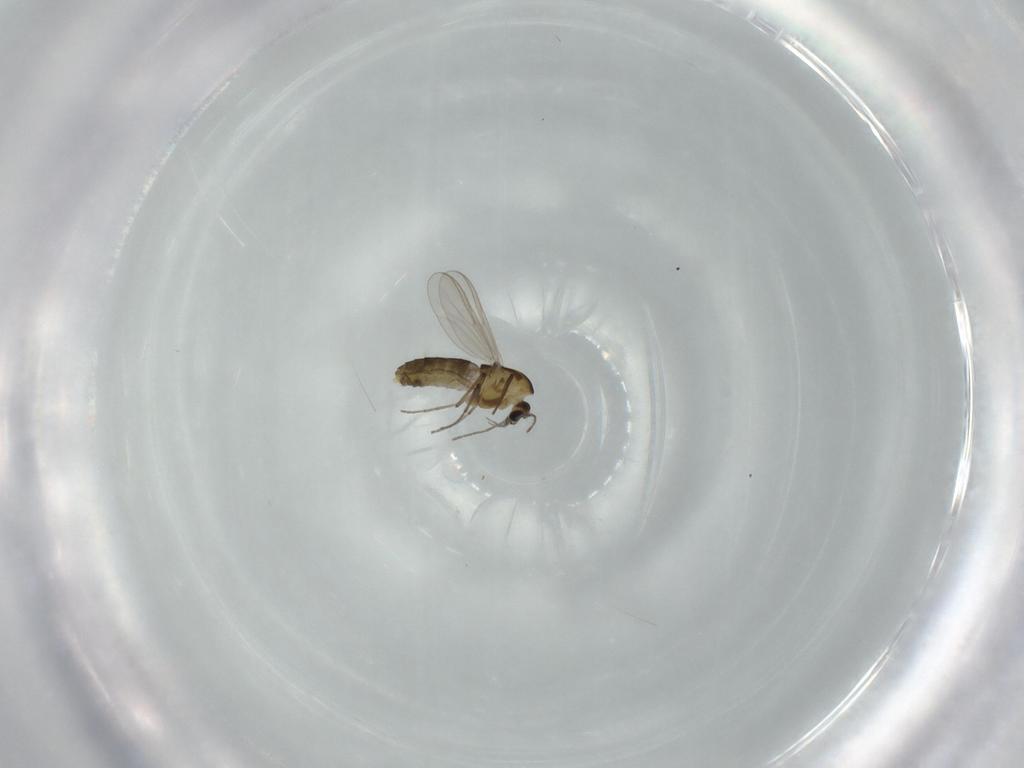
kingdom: Animalia
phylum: Arthropoda
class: Insecta
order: Diptera
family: Chironomidae
